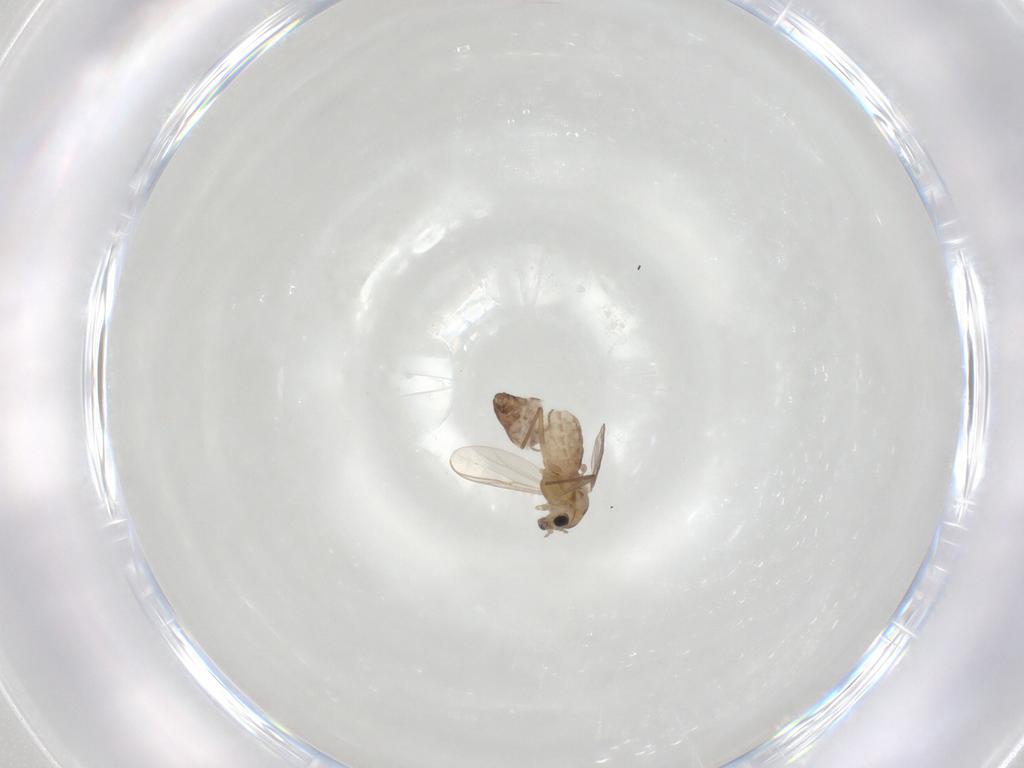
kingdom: Animalia
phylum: Arthropoda
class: Insecta
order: Diptera
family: Chironomidae
